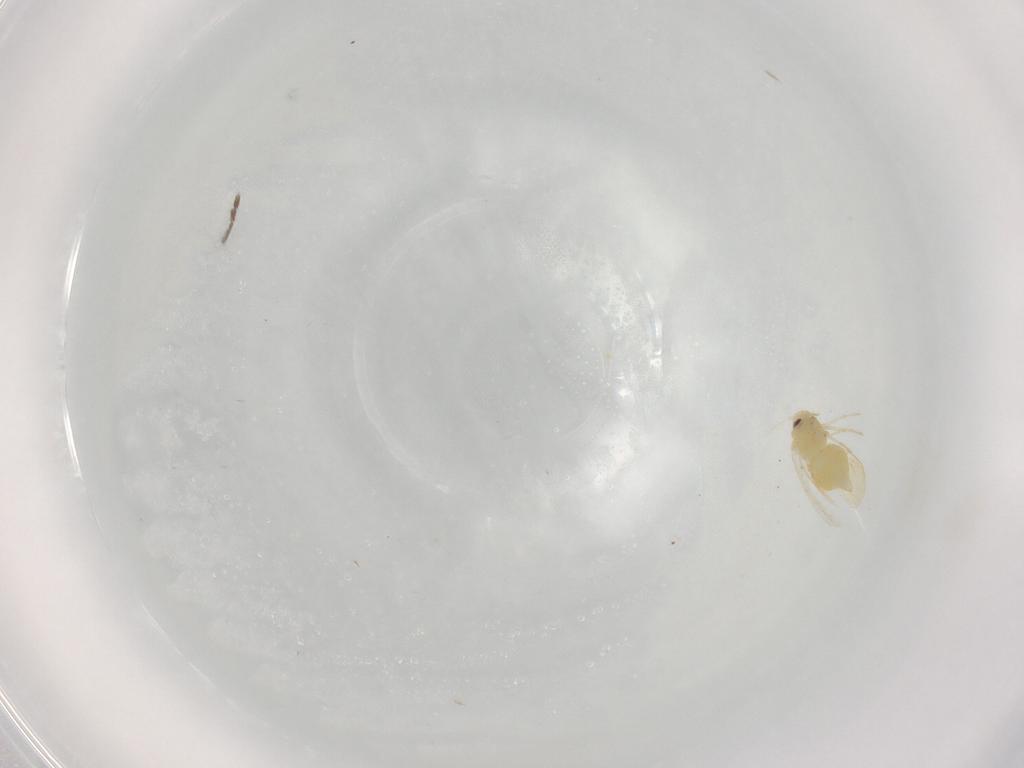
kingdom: Animalia
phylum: Arthropoda
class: Insecta
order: Hemiptera
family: Aleyrodidae
